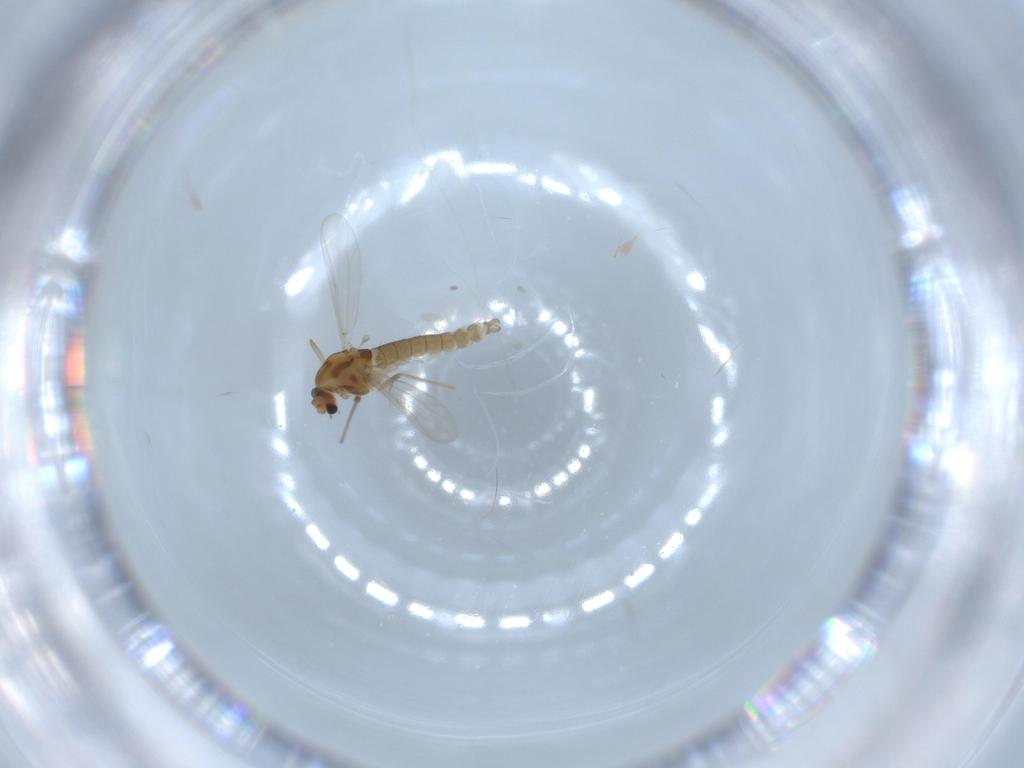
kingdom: Animalia
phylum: Arthropoda
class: Insecta
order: Diptera
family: Chironomidae
